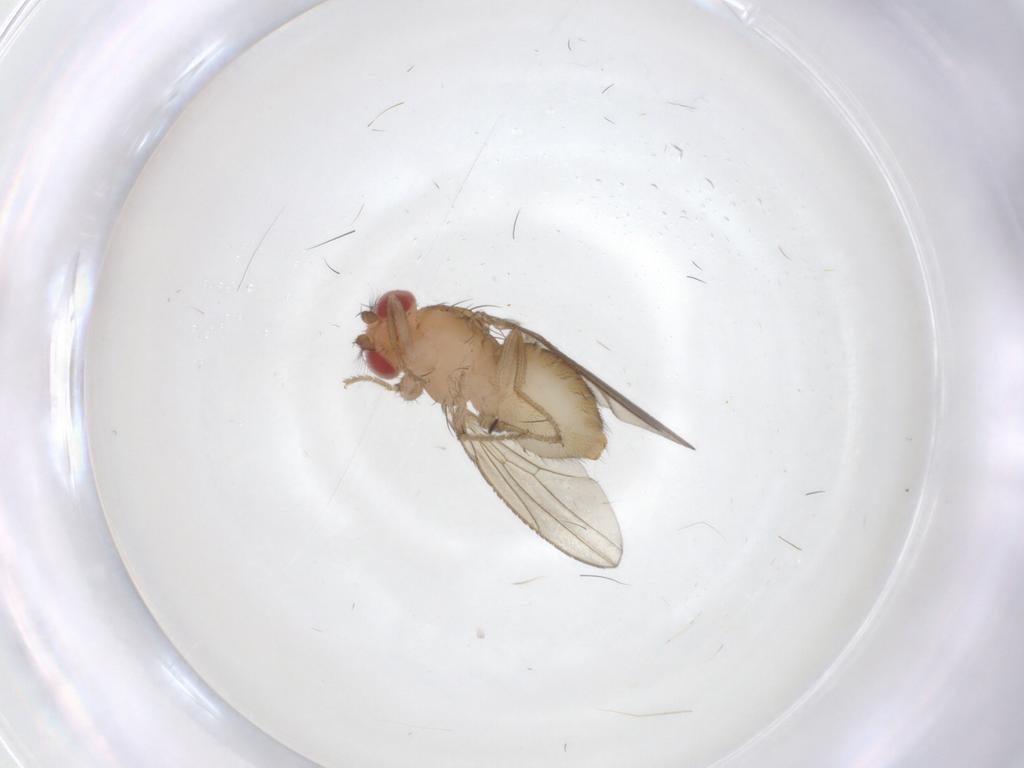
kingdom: Animalia
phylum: Arthropoda
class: Insecta
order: Diptera
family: Drosophilidae
